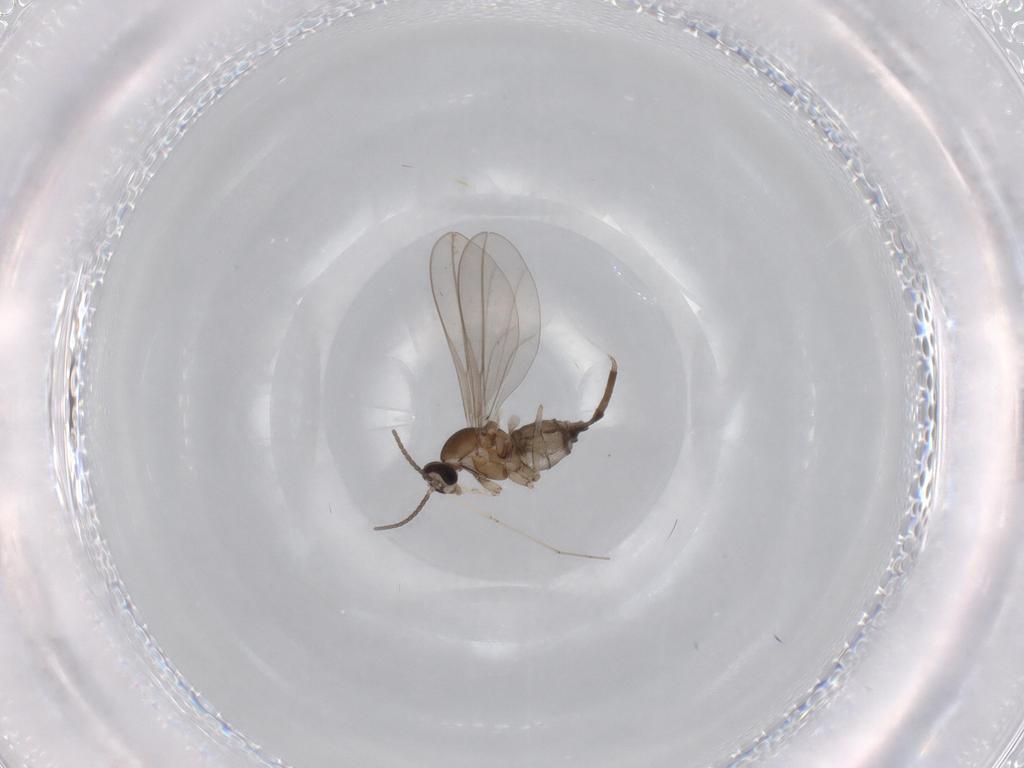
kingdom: Animalia
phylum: Arthropoda
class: Insecta
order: Diptera
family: Cecidomyiidae
